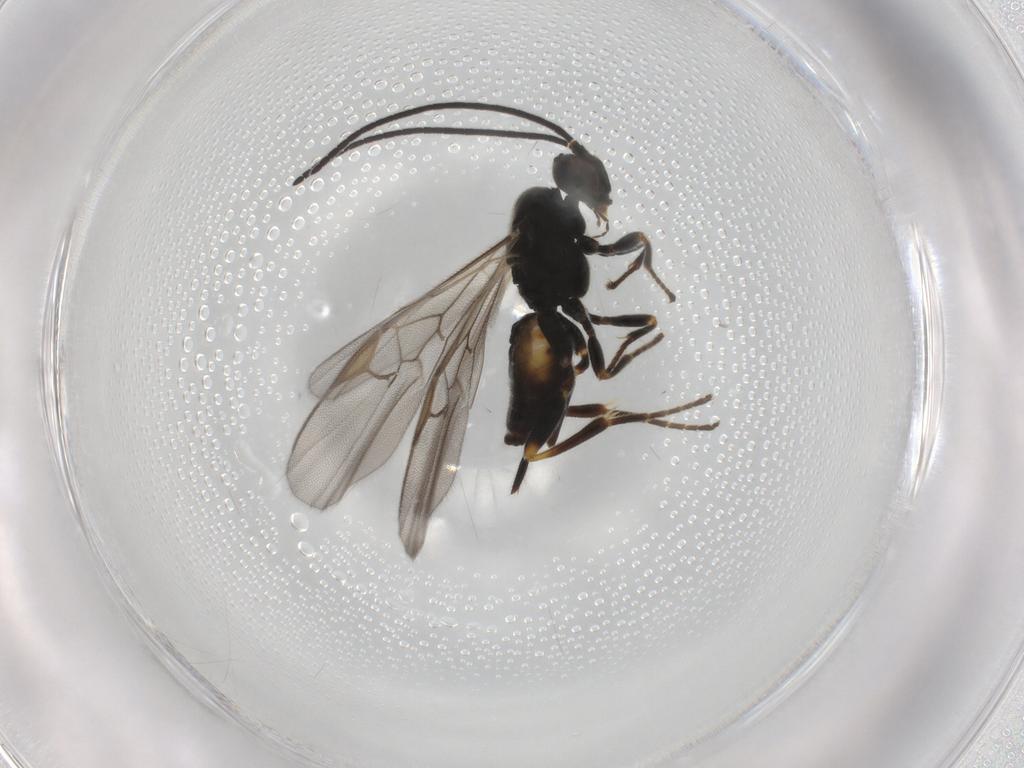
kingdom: Animalia
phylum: Arthropoda
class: Insecta
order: Hymenoptera
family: Braconidae
